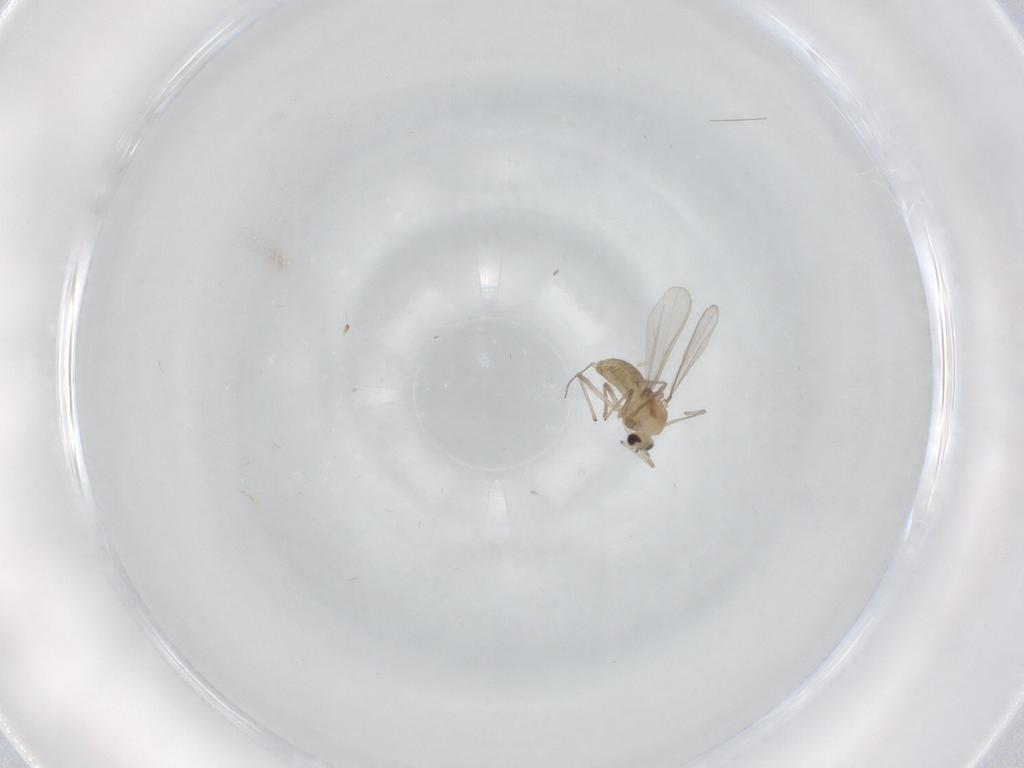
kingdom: Animalia
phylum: Arthropoda
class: Insecta
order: Diptera
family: Chironomidae
